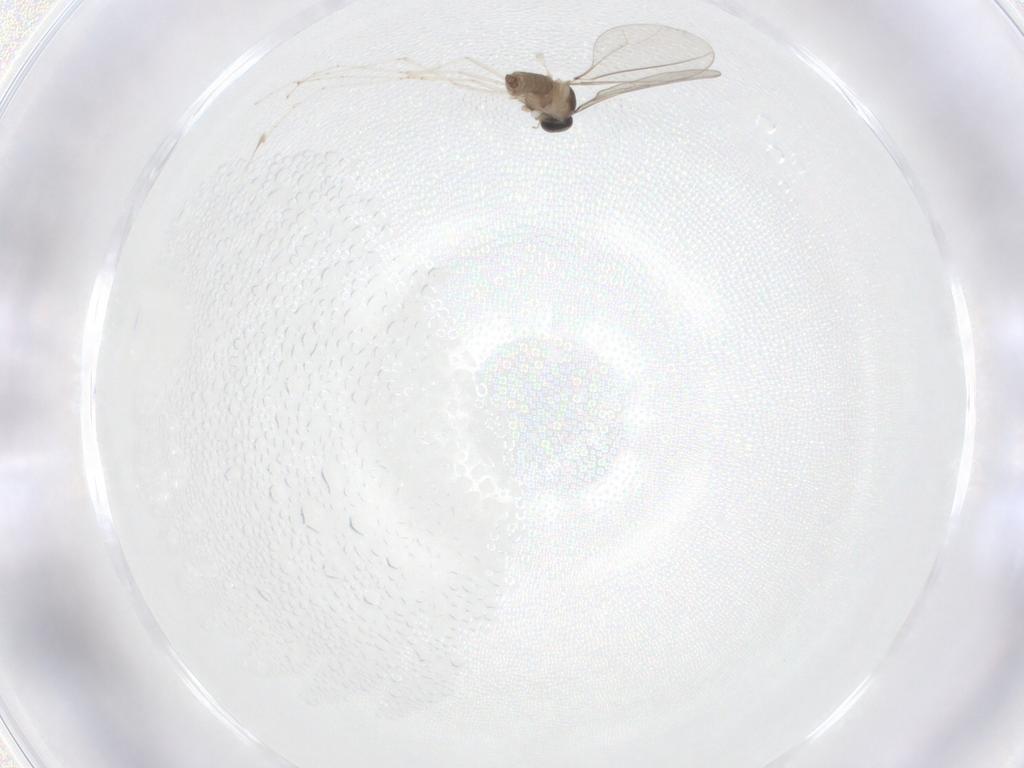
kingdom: Animalia
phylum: Arthropoda
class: Insecta
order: Diptera
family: Cecidomyiidae
